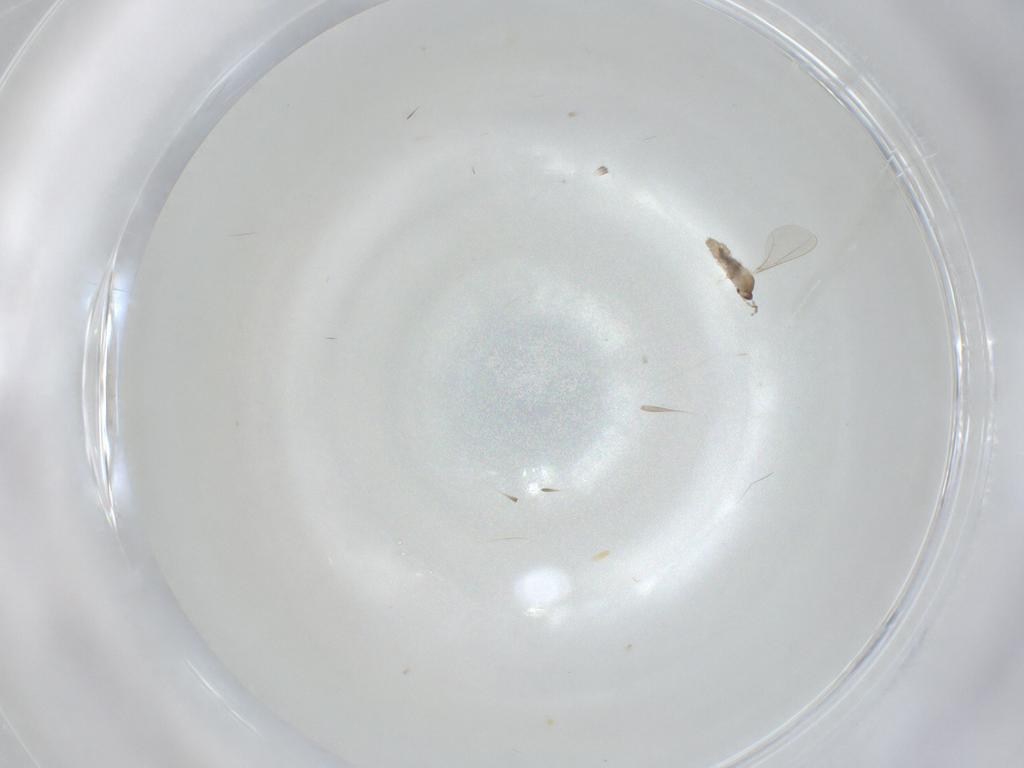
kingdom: Animalia
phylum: Arthropoda
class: Insecta
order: Diptera
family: Cecidomyiidae
